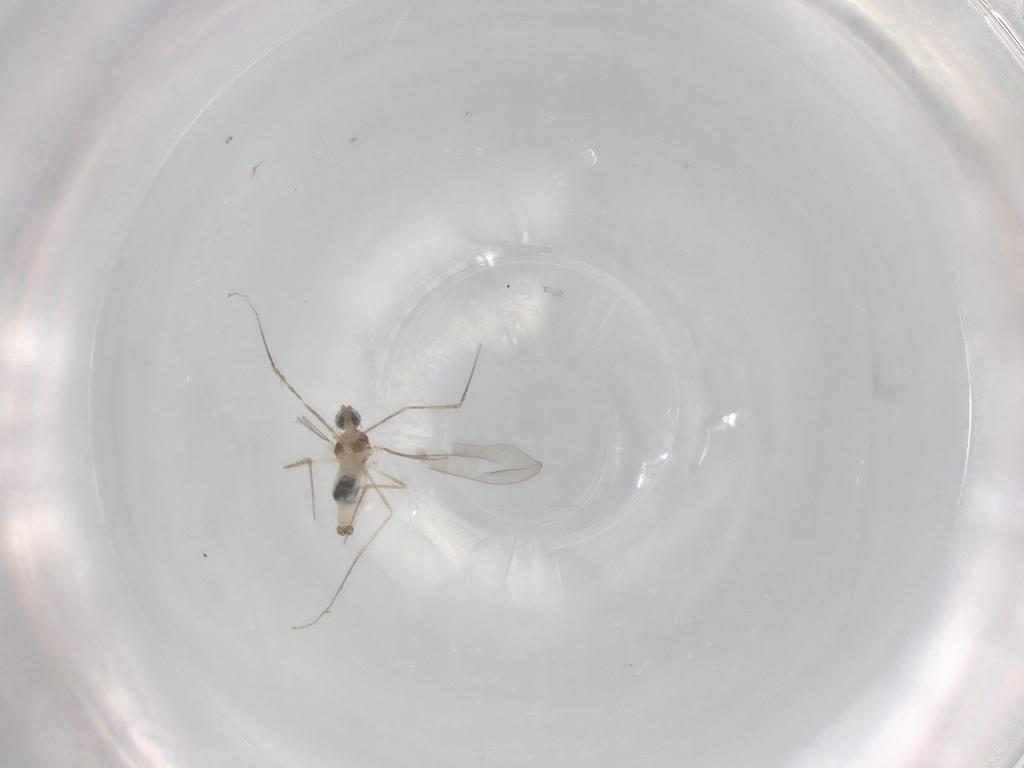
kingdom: Animalia
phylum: Arthropoda
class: Insecta
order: Diptera
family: Cecidomyiidae
